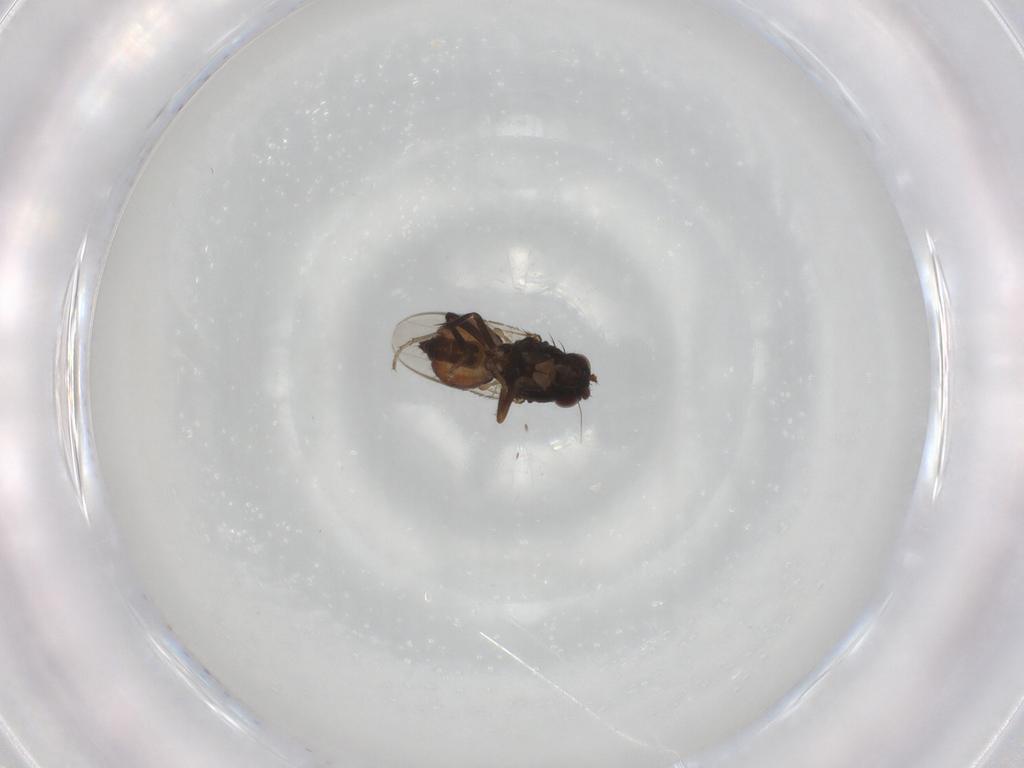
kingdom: Animalia
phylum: Arthropoda
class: Insecta
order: Diptera
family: Sphaeroceridae
